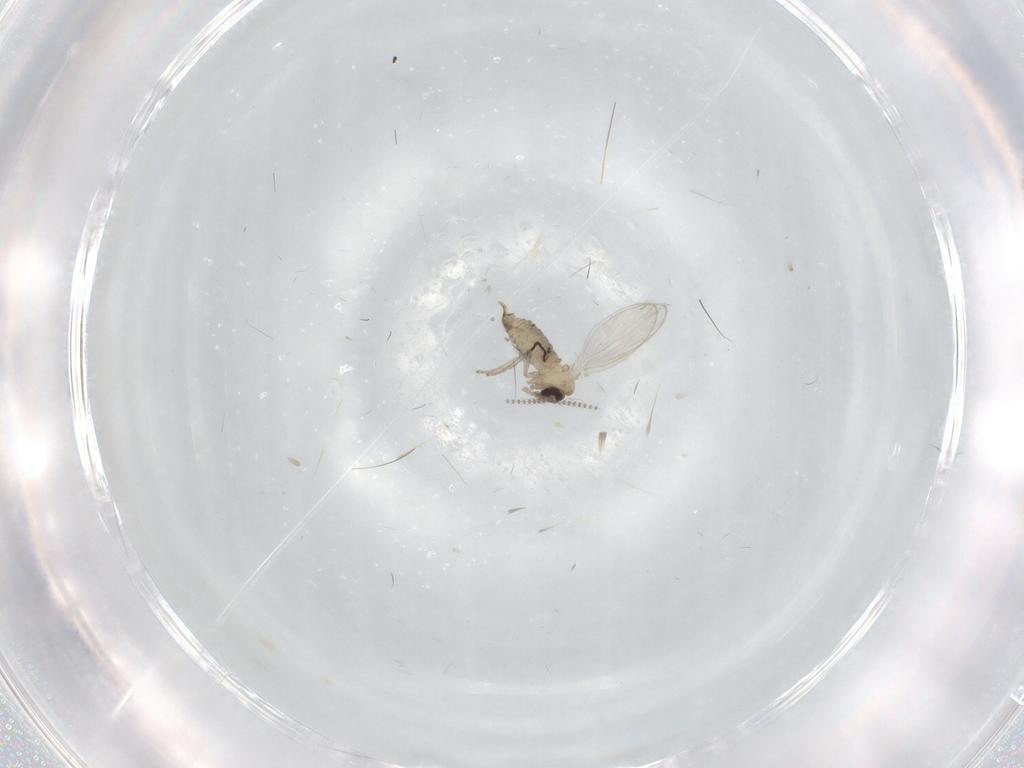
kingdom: Animalia
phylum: Arthropoda
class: Insecta
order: Diptera
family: Psychodidae
